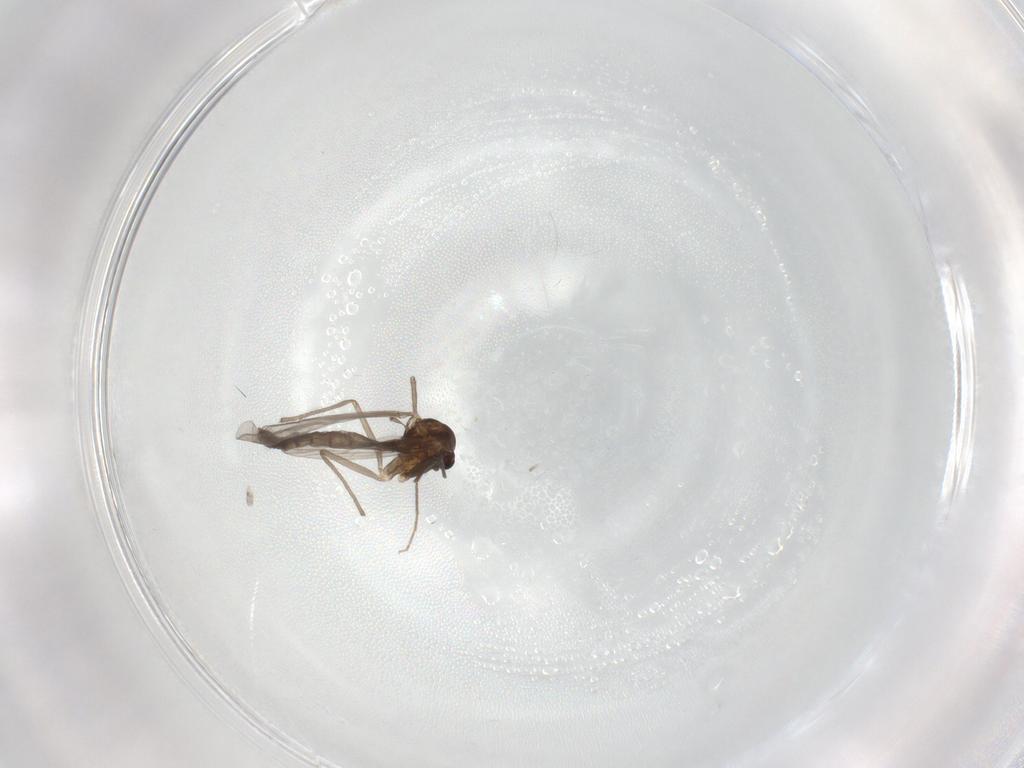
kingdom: Animalia
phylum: Arthropoda
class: Insecta
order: Diptera
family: Chironomidae
